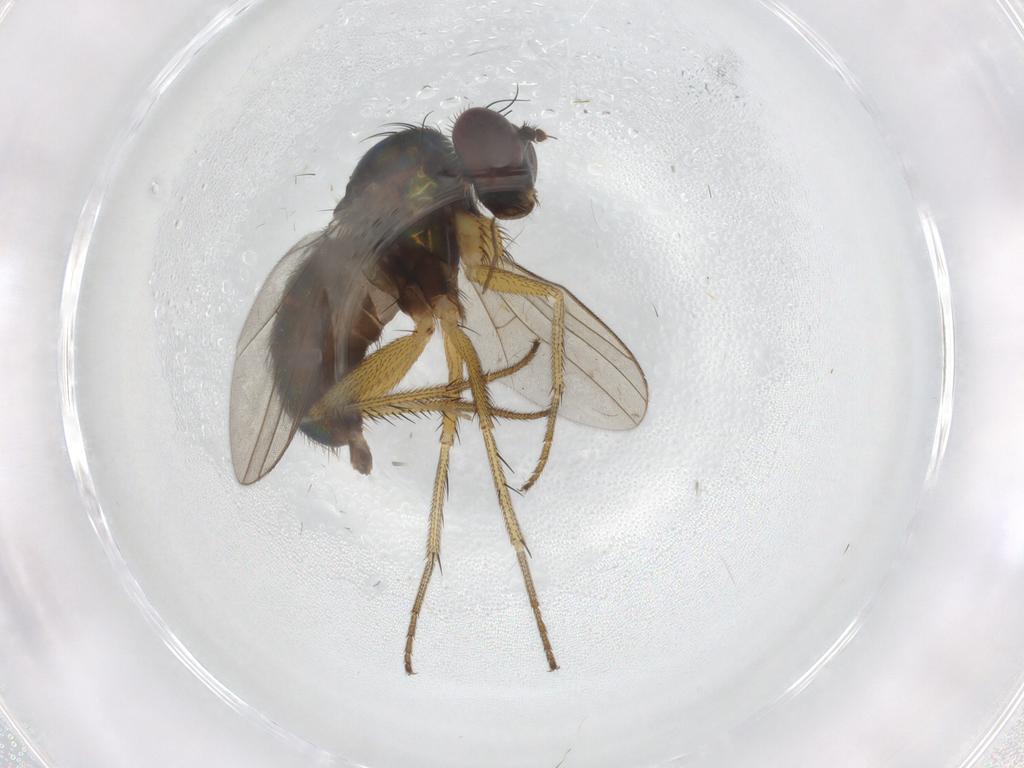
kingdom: Animalia
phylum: Arthropoda
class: Insecta
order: Diptera
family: Dolichopodidae
